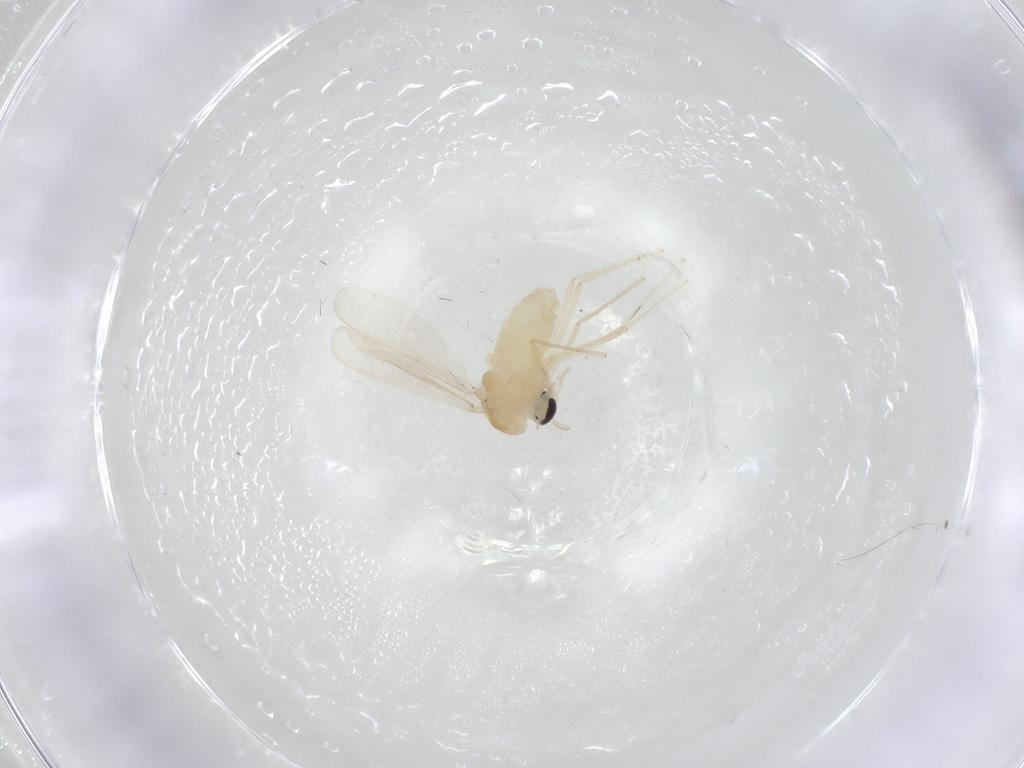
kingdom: Animalia
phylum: Arthropoda
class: Insecta
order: Diptera
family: Chironomidae
